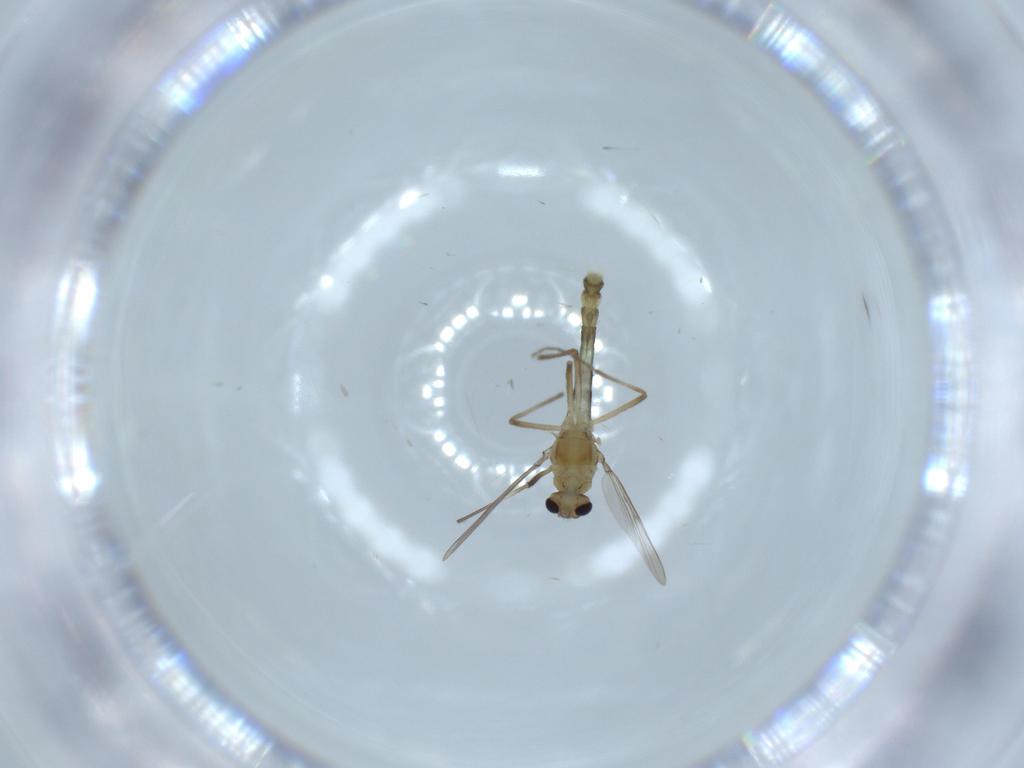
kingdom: Animalia
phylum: Arthropoda
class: Insecta
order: Diptera
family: Chironomidae
